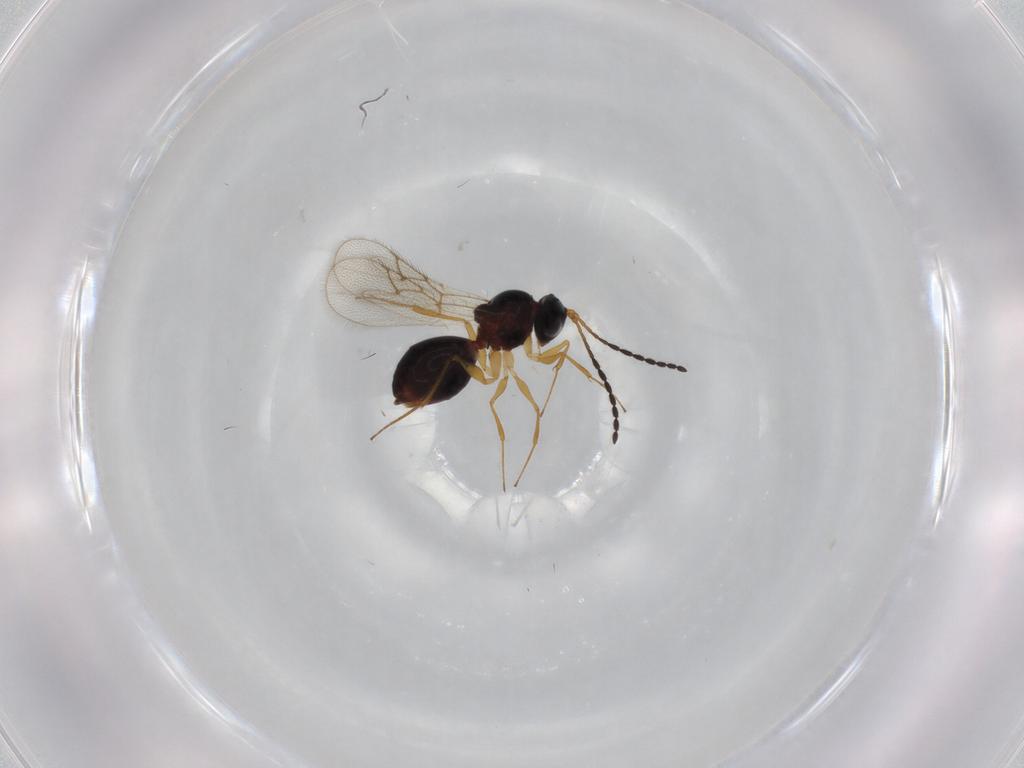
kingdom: Animalia
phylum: Arthropoda
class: Insecta
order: Hymenoptera
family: Figitidae
